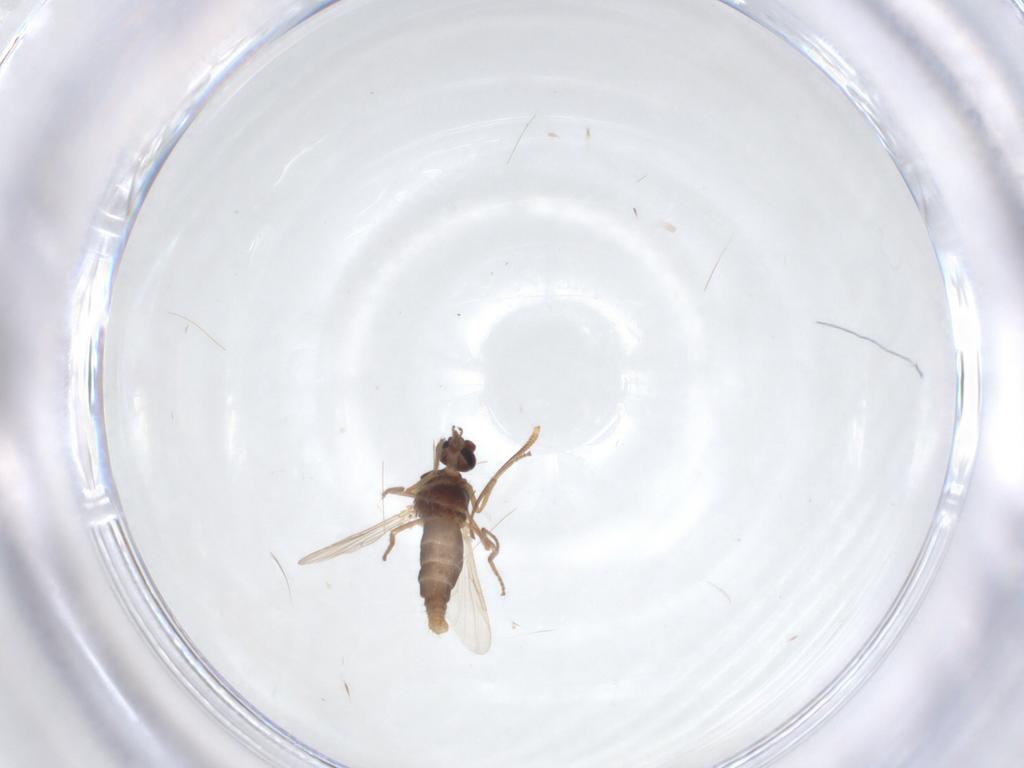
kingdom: Animalia
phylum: Arthropoda
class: Insecta
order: Diptera
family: Ceratopogonidae
